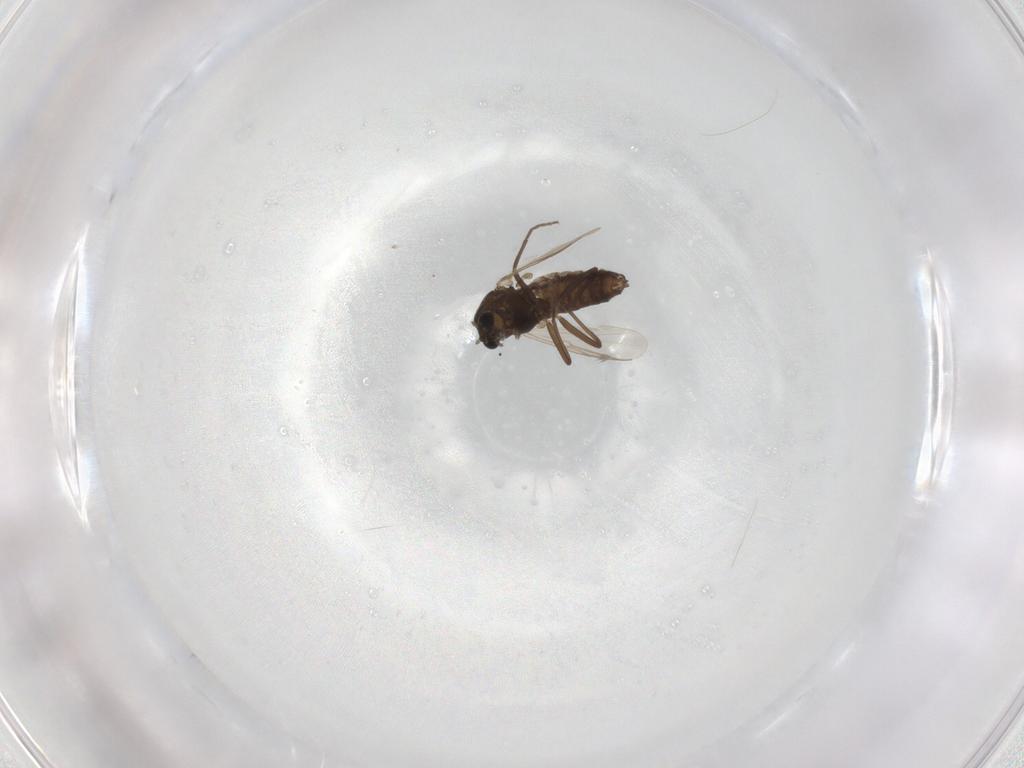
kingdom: Animalia
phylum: Arthropoda
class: Insecta
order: Diptera
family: Chironomidae
